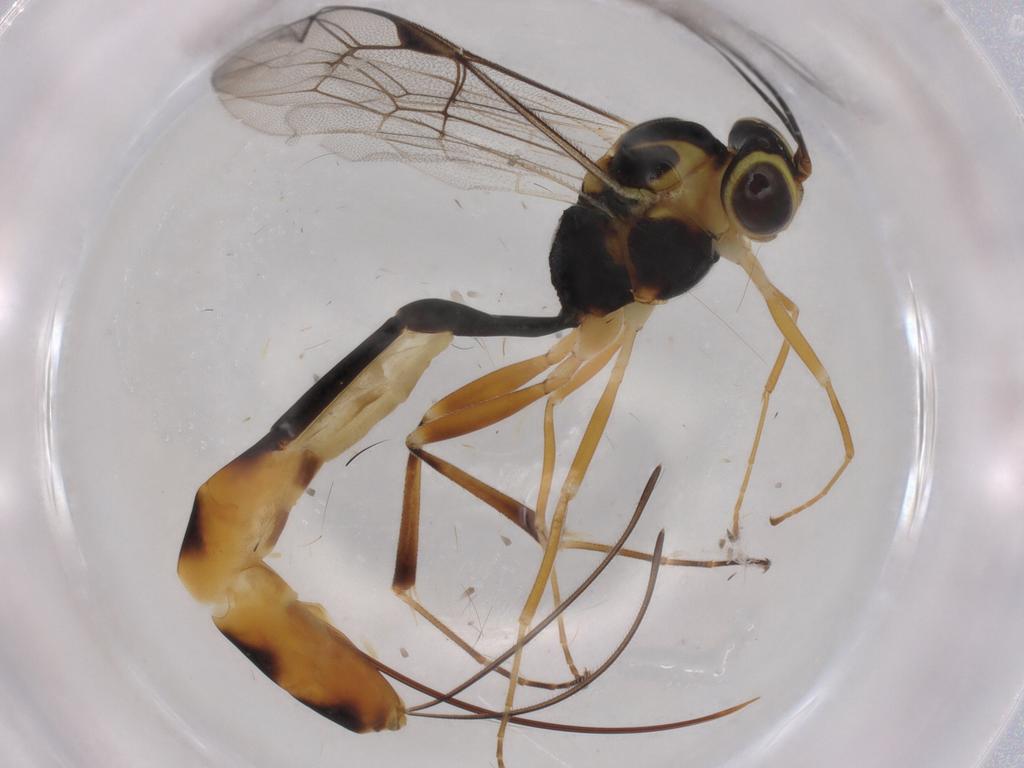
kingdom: Animalia
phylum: Arthropoda
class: Insecta
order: Hymenoptera
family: Ichneumonidae
